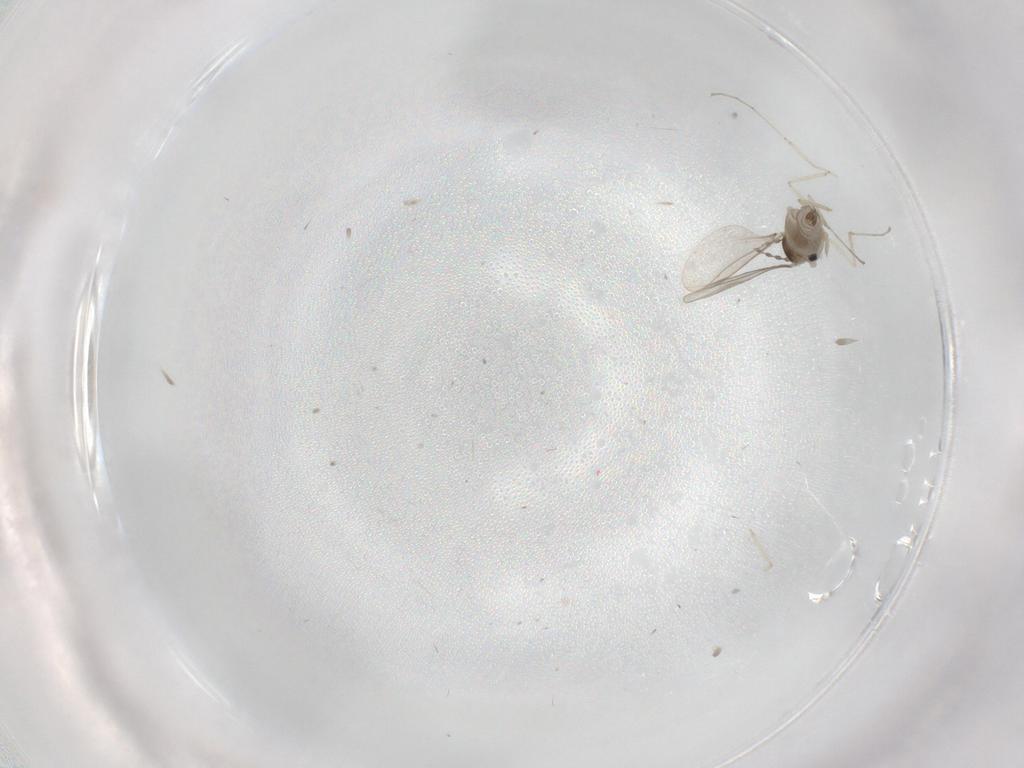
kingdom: Animalia
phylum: Arthropoda
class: Insecta
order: Diptera
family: Cecidomyiidae
